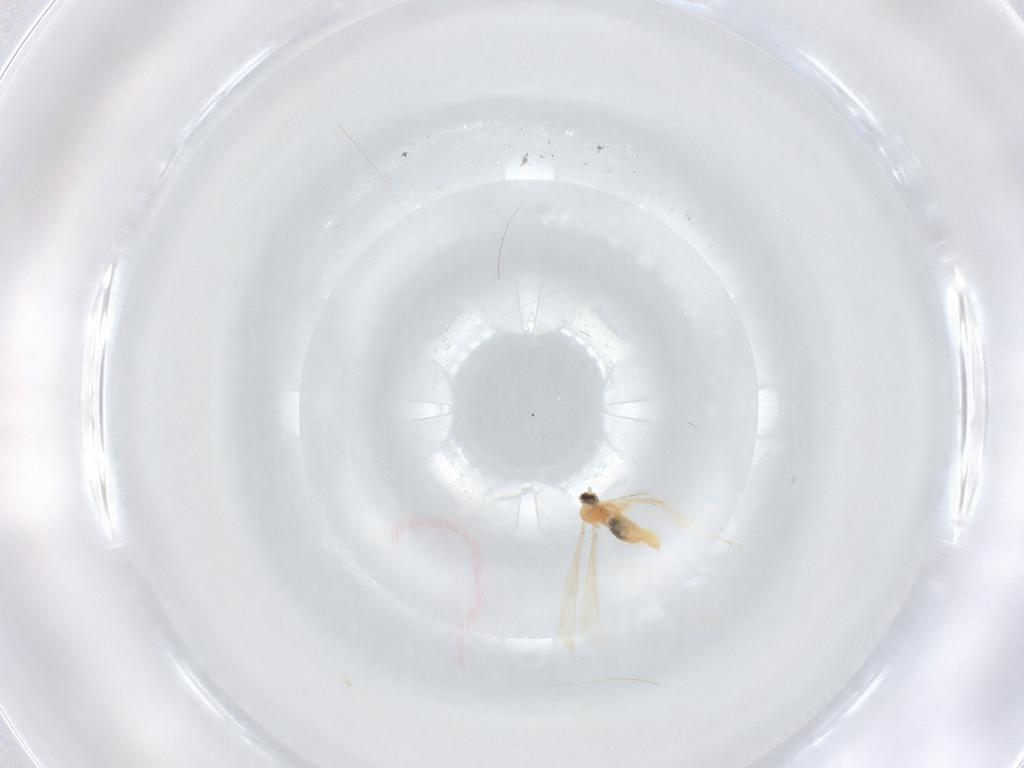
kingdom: Animalia
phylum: Arthropoda
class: Insecta
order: Diptera
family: Cecidomyiidae
